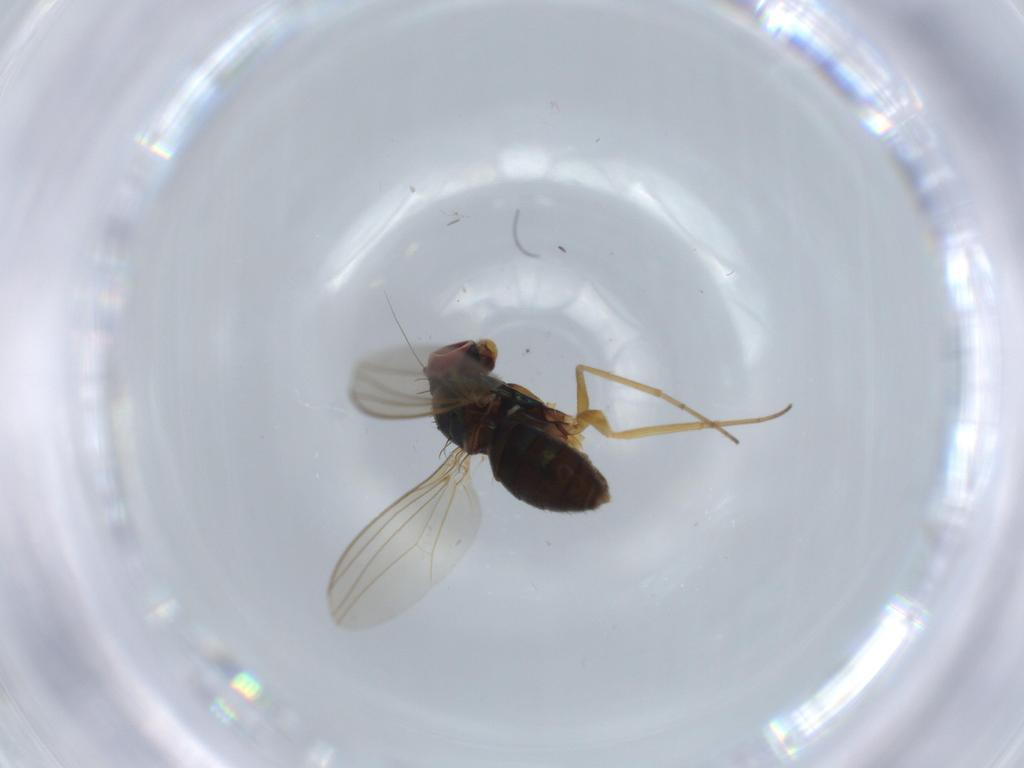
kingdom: Animalia
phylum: Arthropoda
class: Insecta
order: Diptera
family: Dolichopodidae
